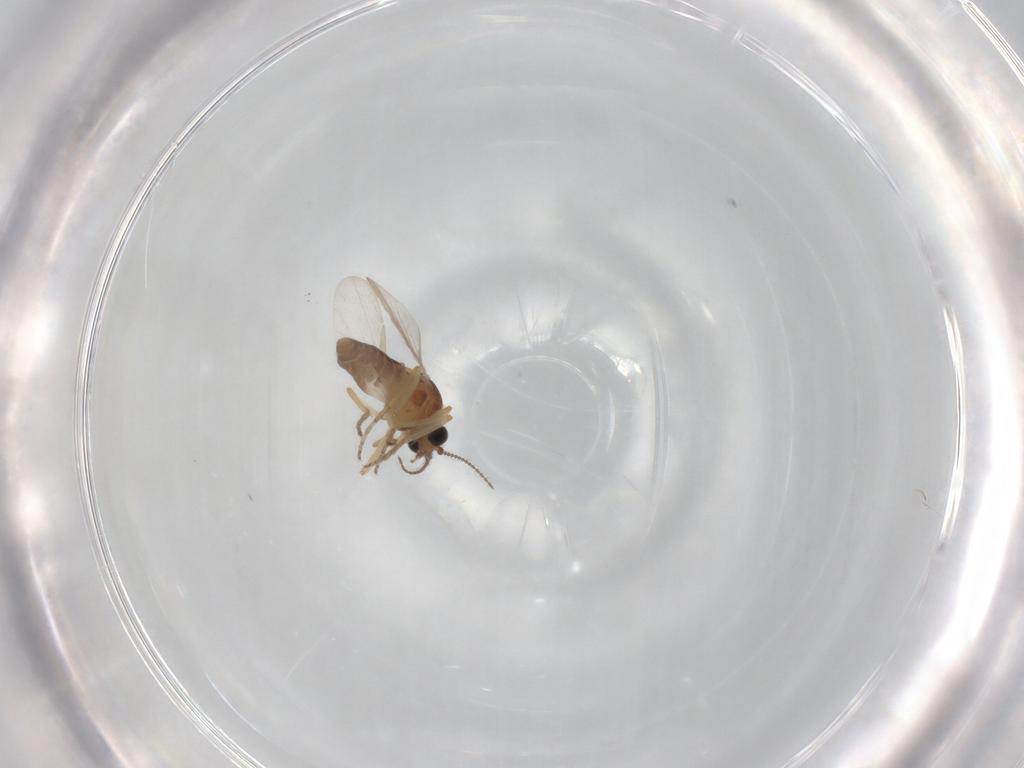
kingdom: Animalia
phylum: Arthropoda
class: Insecta
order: Diptera
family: Ceratopogonidae
